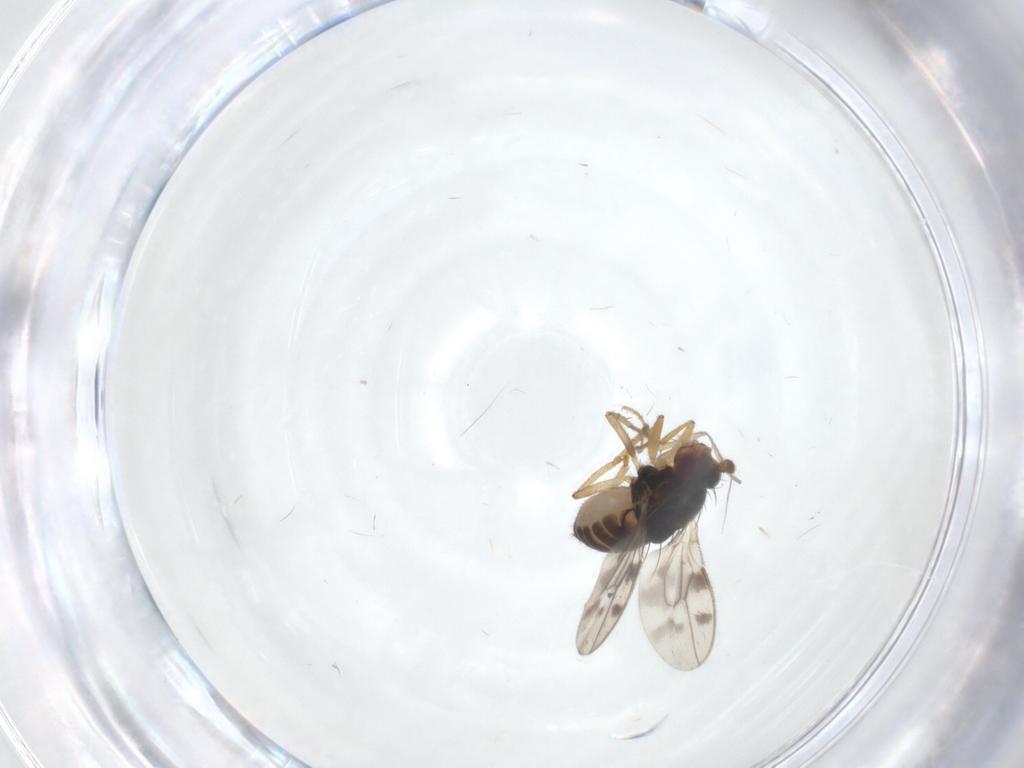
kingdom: Animalia
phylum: Arthropoda
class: Insecta
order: Diptera
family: Sphaeroceridae
